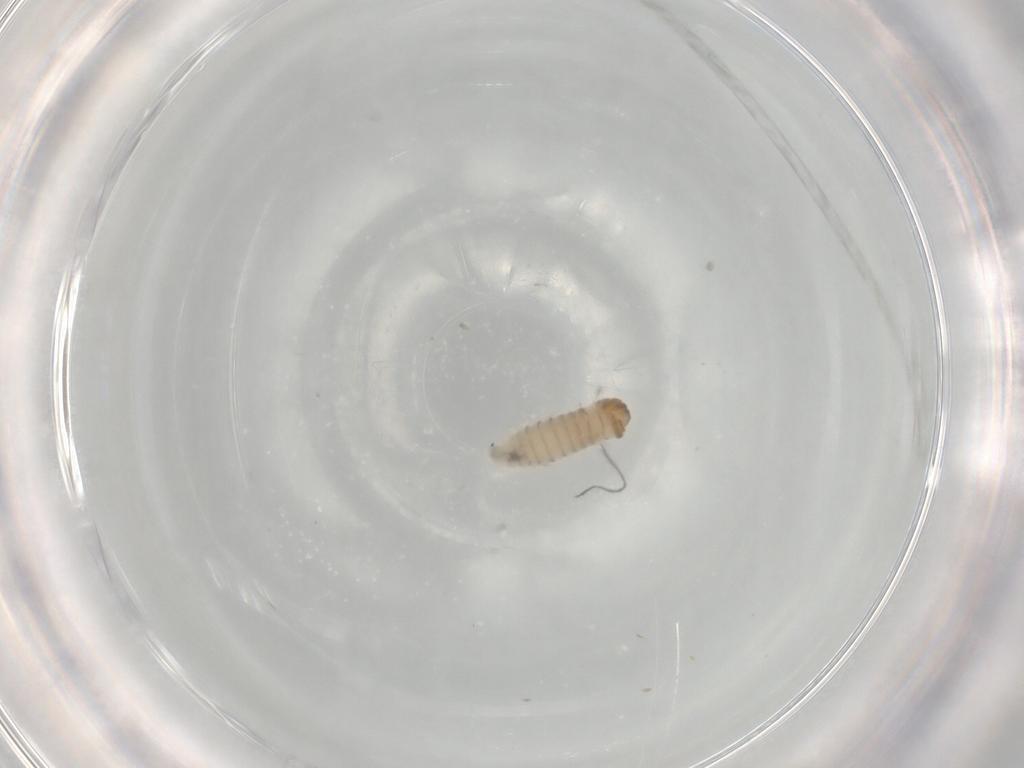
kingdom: Animalia
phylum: Arthropoda
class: Insecta
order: Diptera
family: Sarcophagidae
